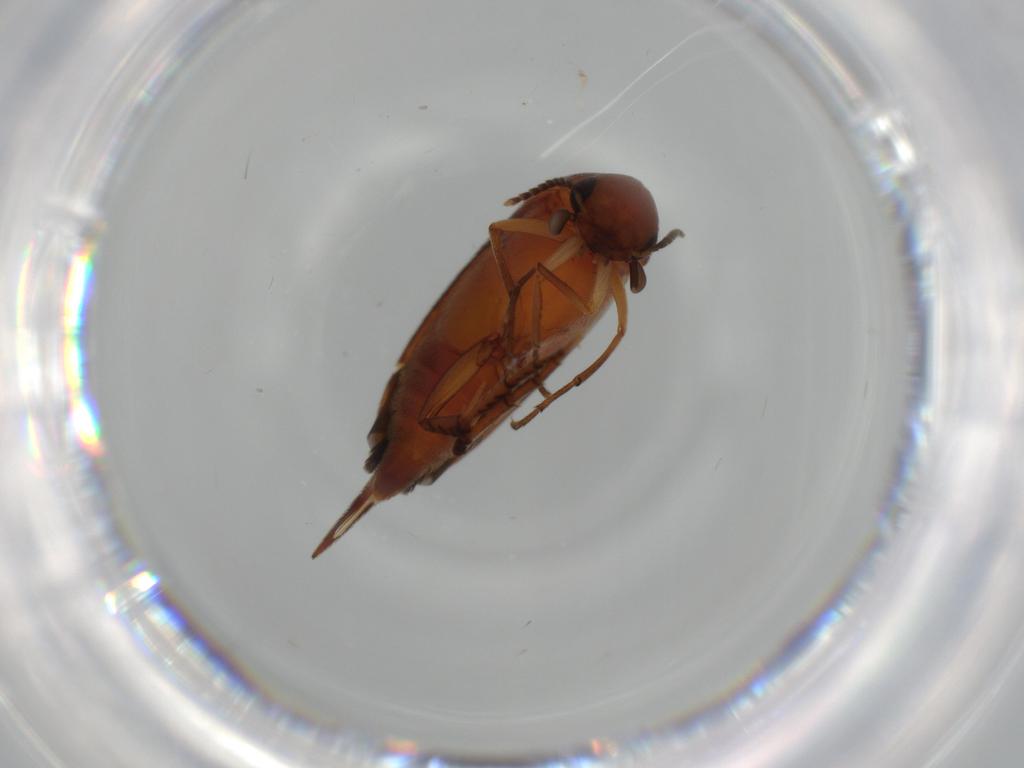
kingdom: Animalia
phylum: Arthropoda
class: Insecta
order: Coleoptera
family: Mordellidae
